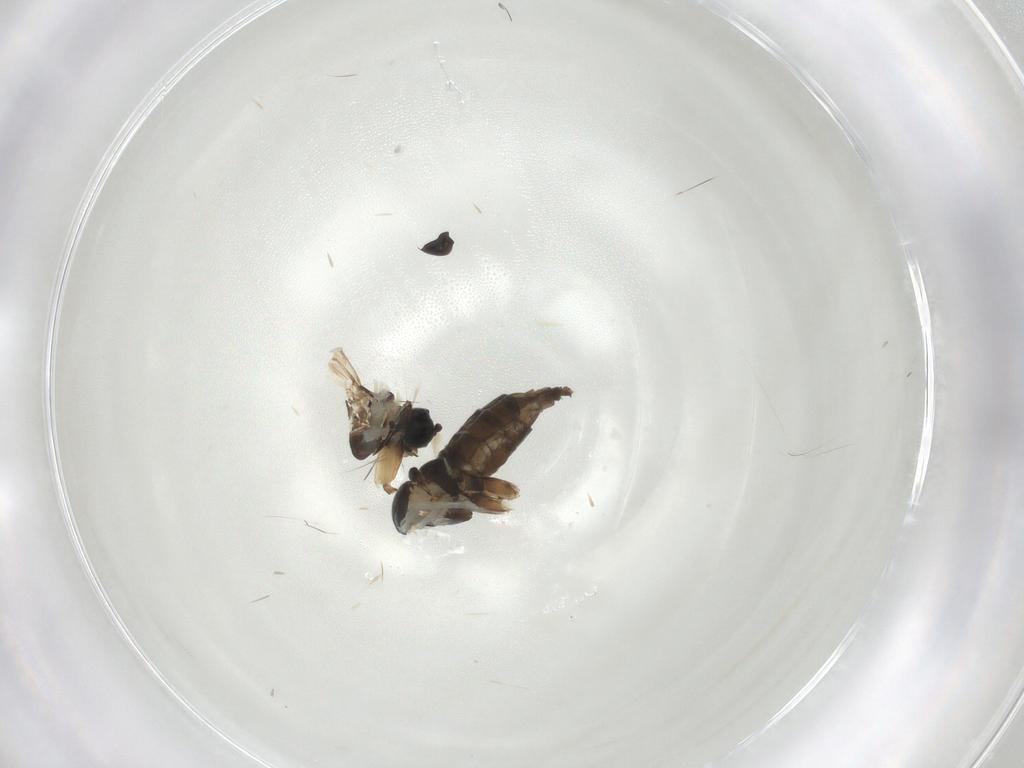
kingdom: Animalia
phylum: Arthropoda
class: Insecta
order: Diptera
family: Sciaridae
